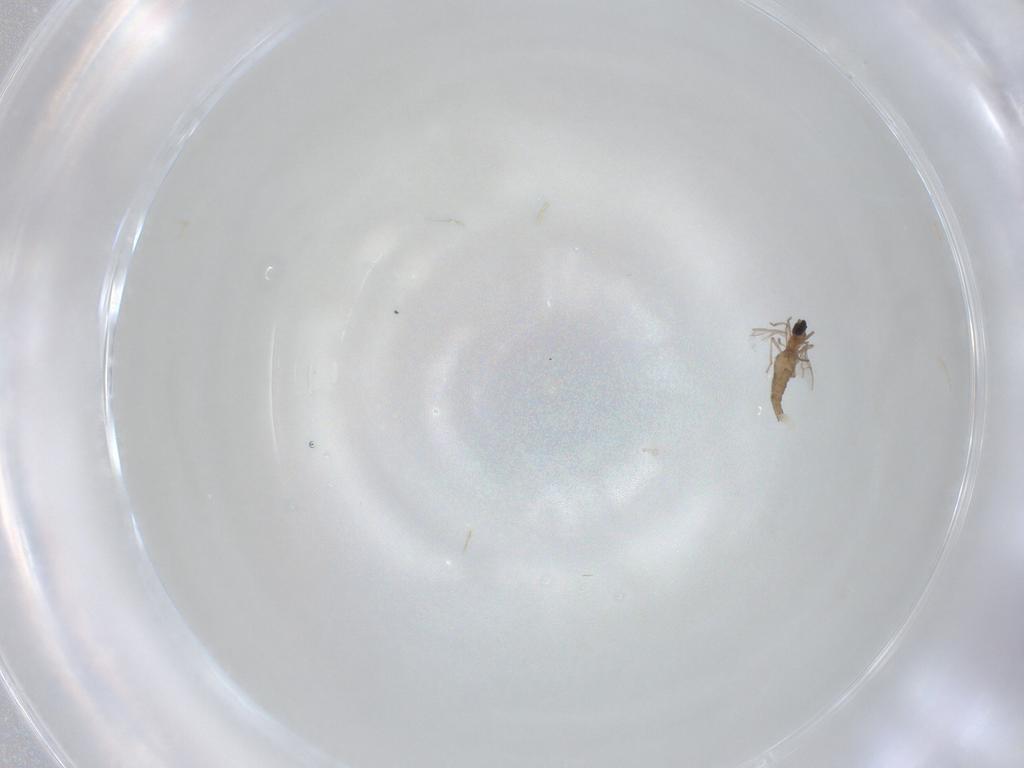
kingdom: Animalia
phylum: Arthropoda
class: Insecta
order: Diptera
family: Cecidomyiidae
